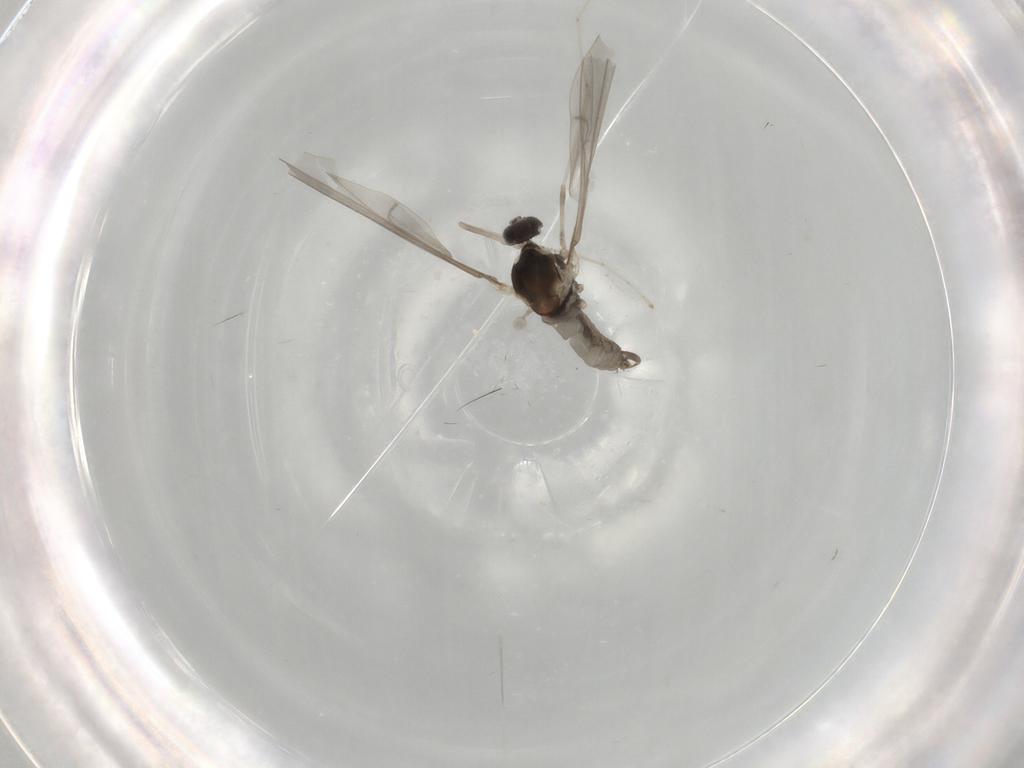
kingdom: Animalia
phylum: Arthropoda
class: Insecta
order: Diptera
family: Cecidomyiidae
